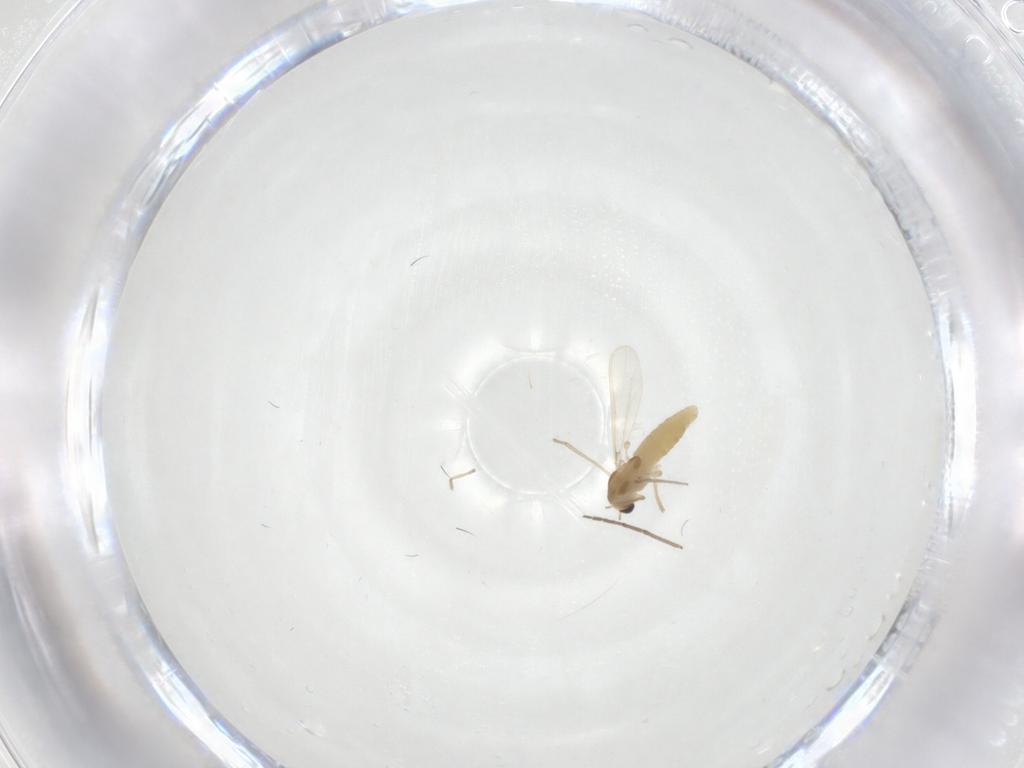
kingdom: Animalia
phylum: Arthropoda
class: Insecta
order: Diptera
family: Chironomidae
